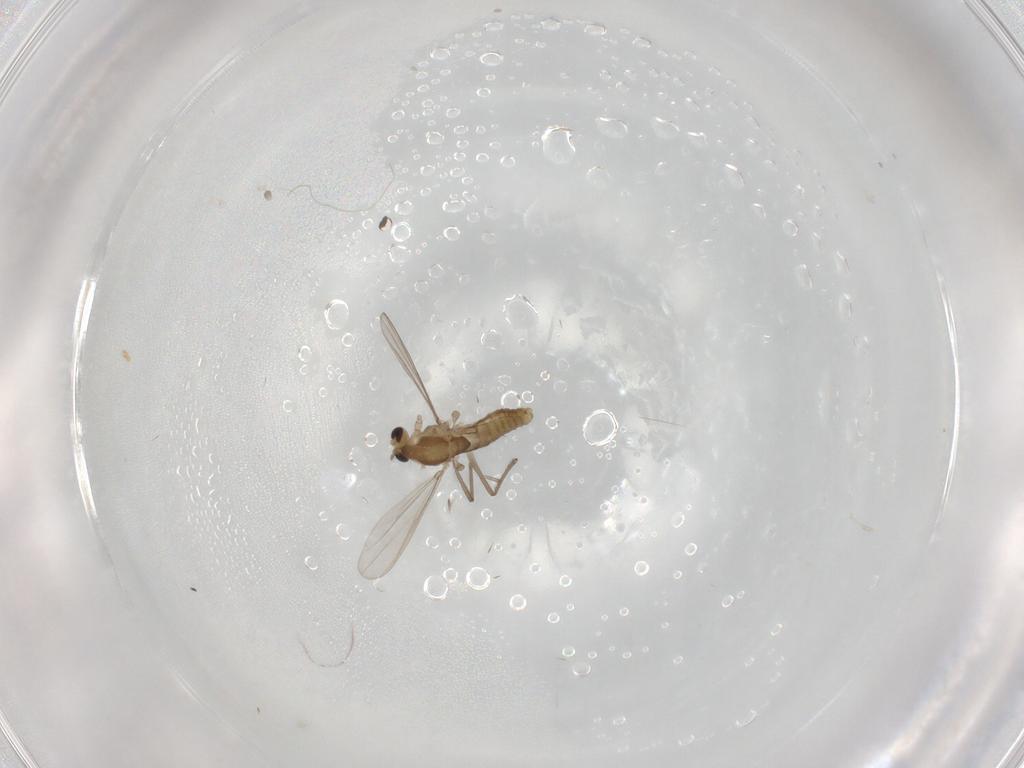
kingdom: Animalia
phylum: Arthropoda
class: Insecta
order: Diptera
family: Chironomidae
